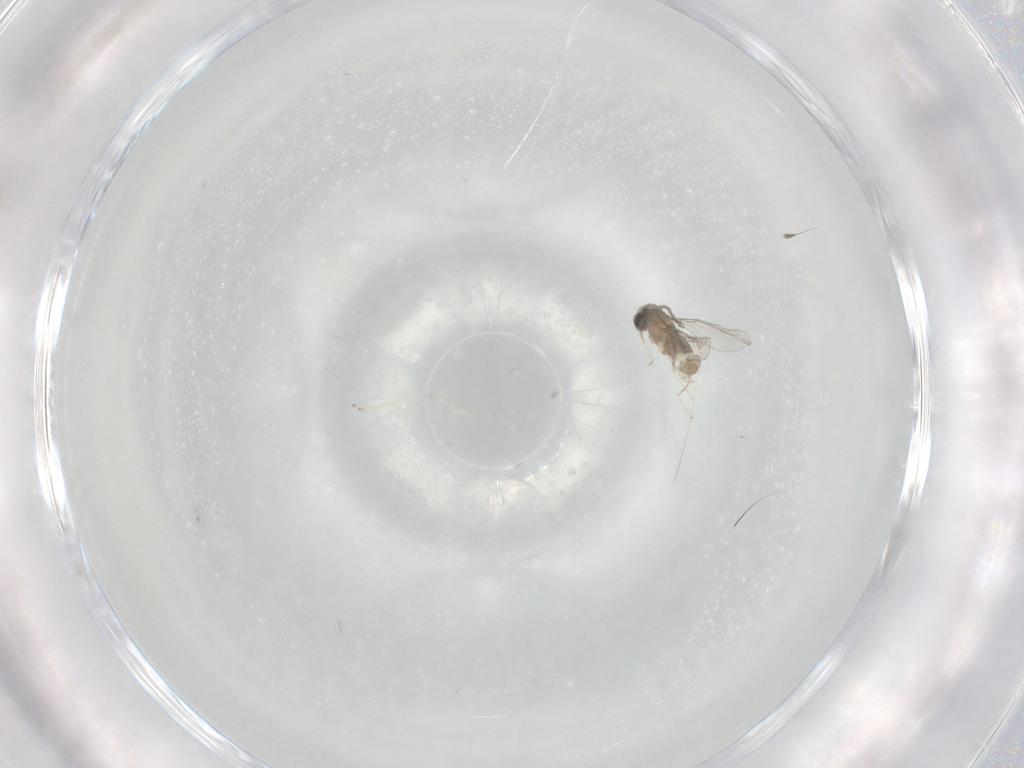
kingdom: Animalia
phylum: Arthropoda
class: Insecta
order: Diptera
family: Cecidomyiidae
